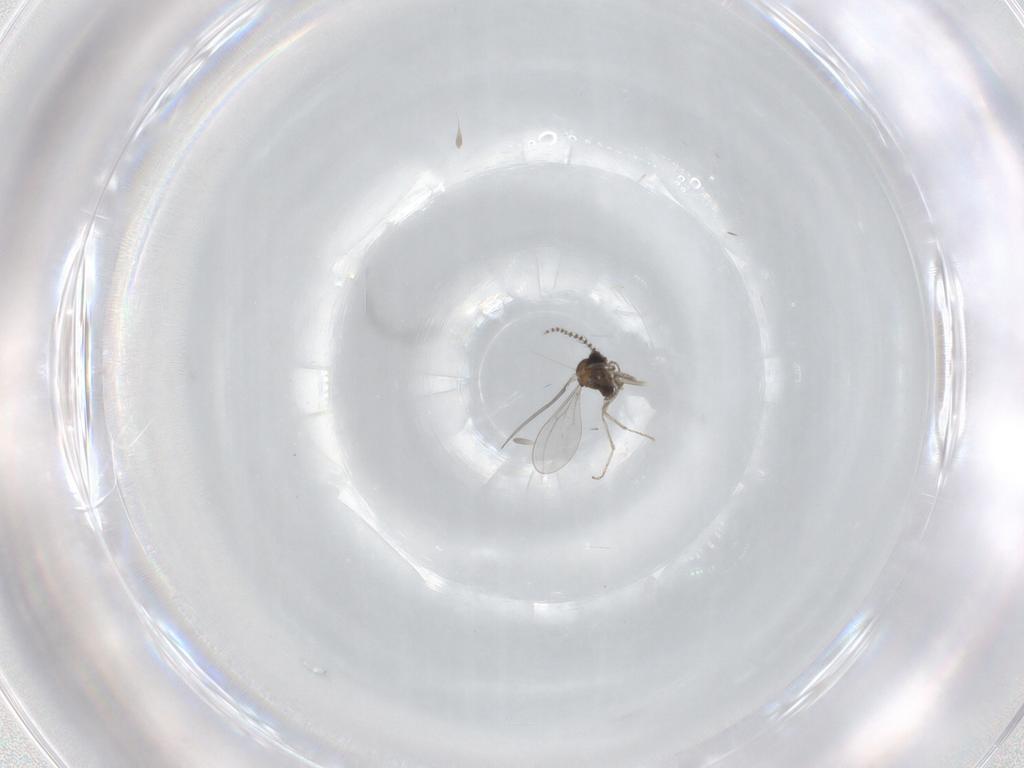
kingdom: Animalia
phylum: Arthropoda
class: Insecta
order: Diptera
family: Cecidomyiidae
